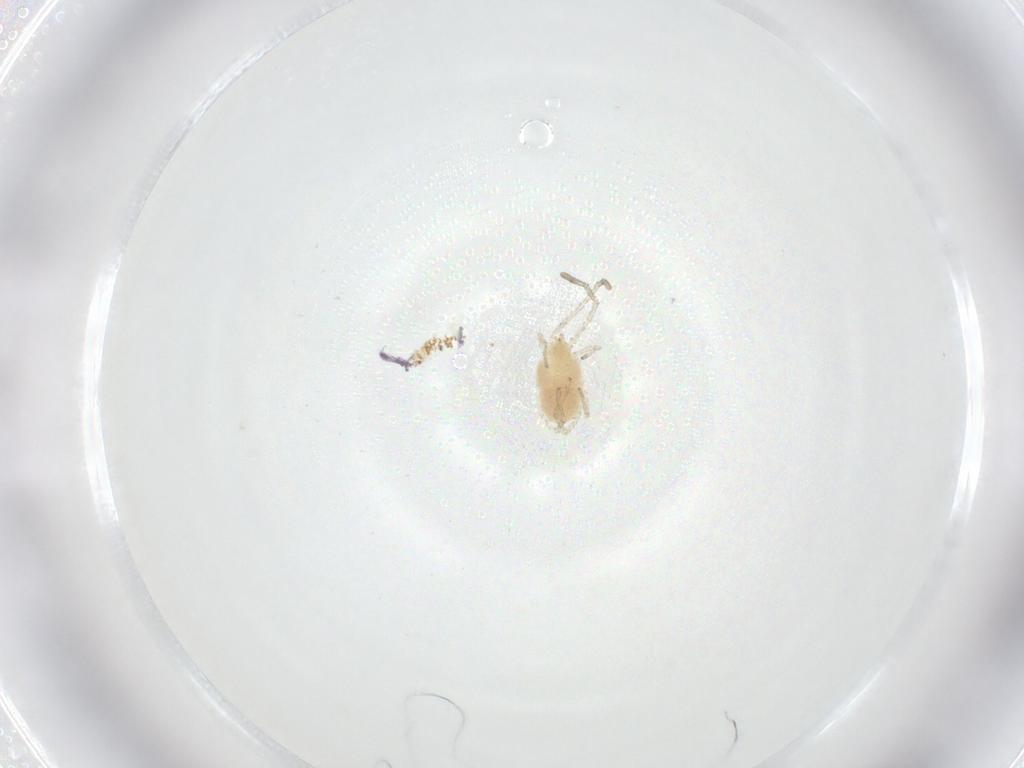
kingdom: Animalia
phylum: Arthropoda
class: Arachnida
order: Trombidiformes
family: Smarididae
